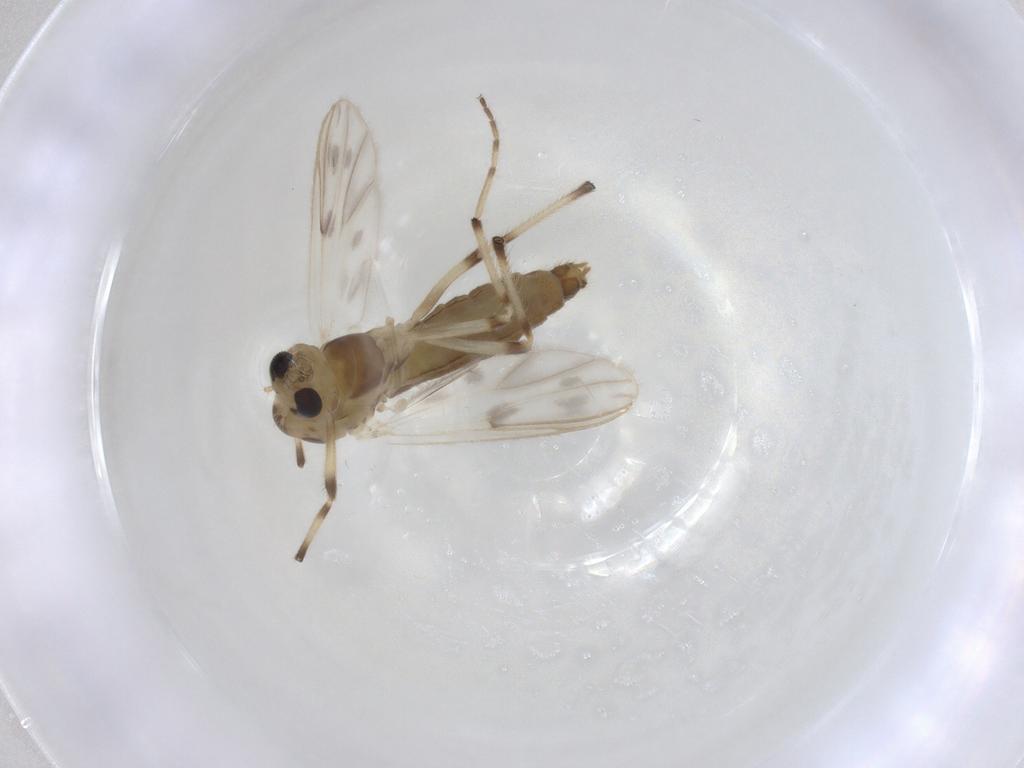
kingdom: Animalia
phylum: Arthropoda
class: Insecta
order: Diptera
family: Chironomidae
